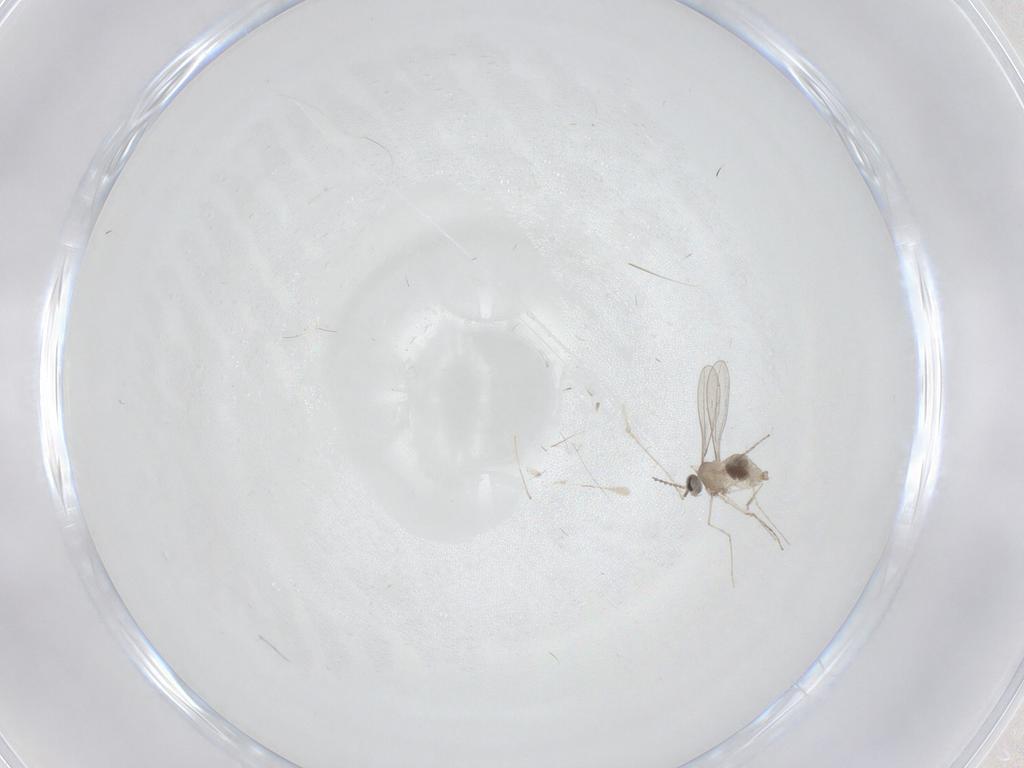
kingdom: Animalia
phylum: Arthropoda
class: Insecta
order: Diptera
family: Cecidomyiidae
